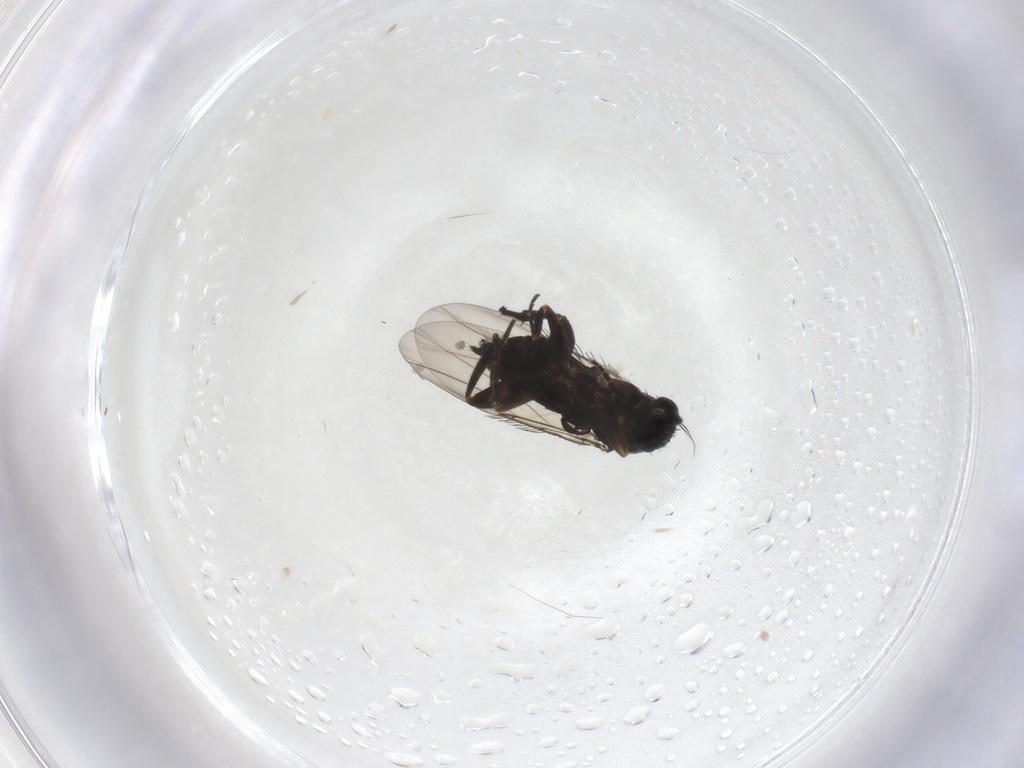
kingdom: Animalia
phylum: Arthropoda
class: Insecta
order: Diptera
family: Phoridae
